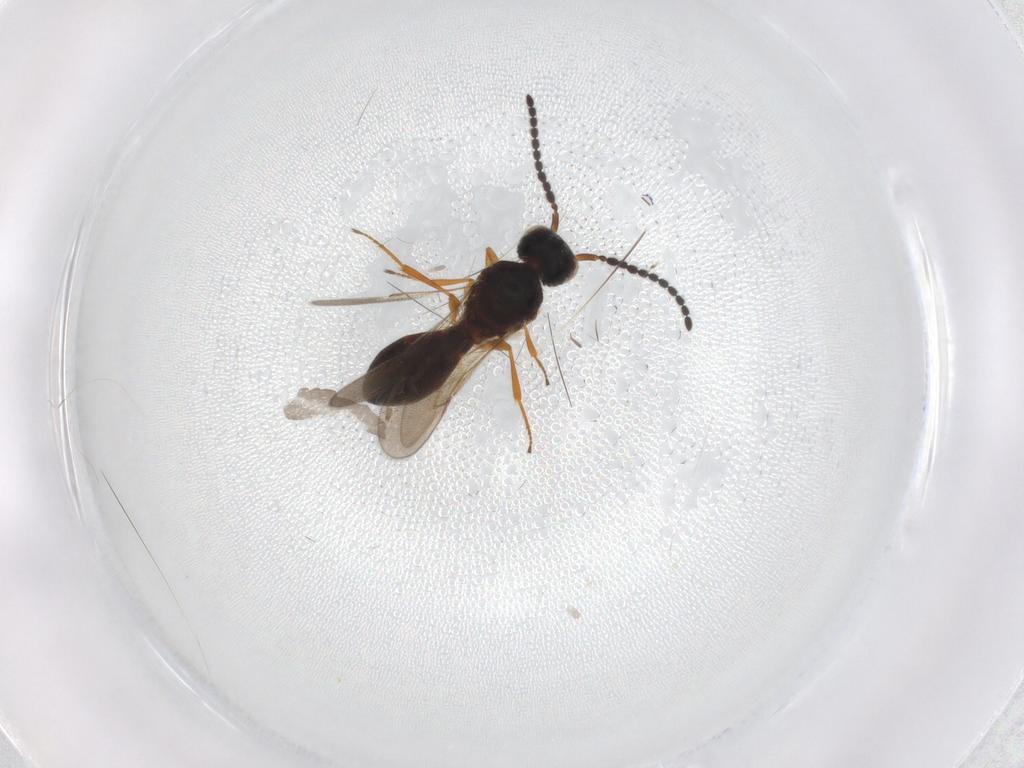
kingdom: Animalia
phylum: Arthropoda
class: Insecta
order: Hymenoptera
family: Scelionidae
